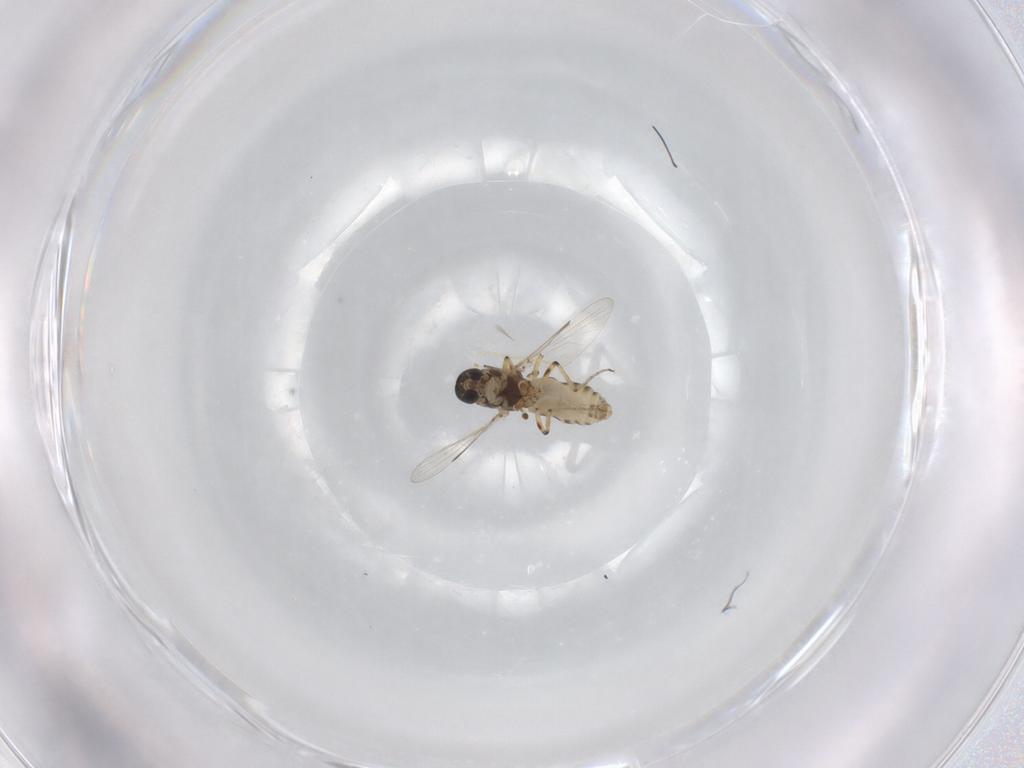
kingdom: Animalia
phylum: Arthropoda
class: Insecta
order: Diptera
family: Ceratopogonidae
